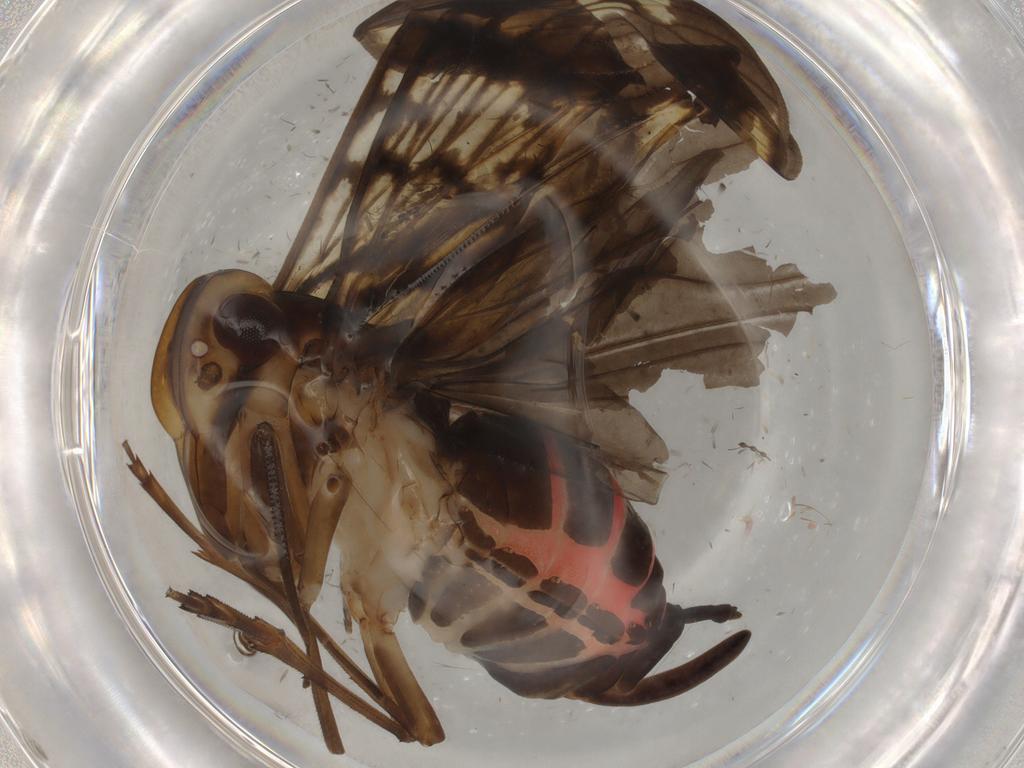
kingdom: Animalia
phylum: Arthropoda
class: Insecta
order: Hemiptera
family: Cixiidae
